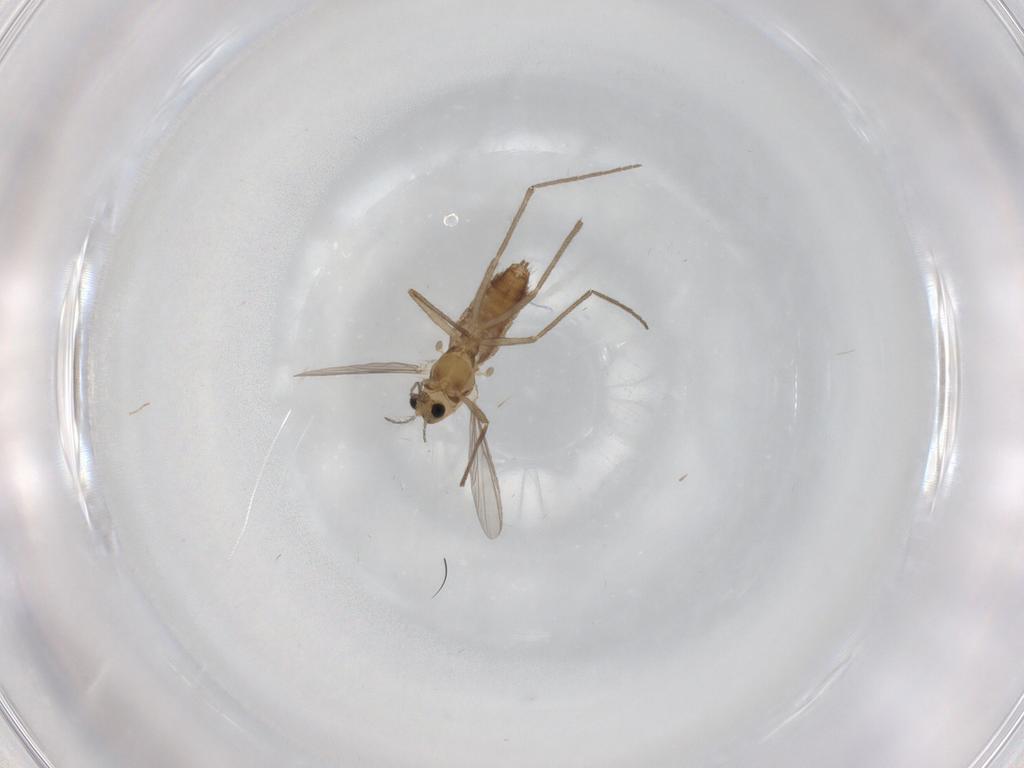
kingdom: Animalia
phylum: Arthropoda
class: Insecta
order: Diptera
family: Chironomidae
